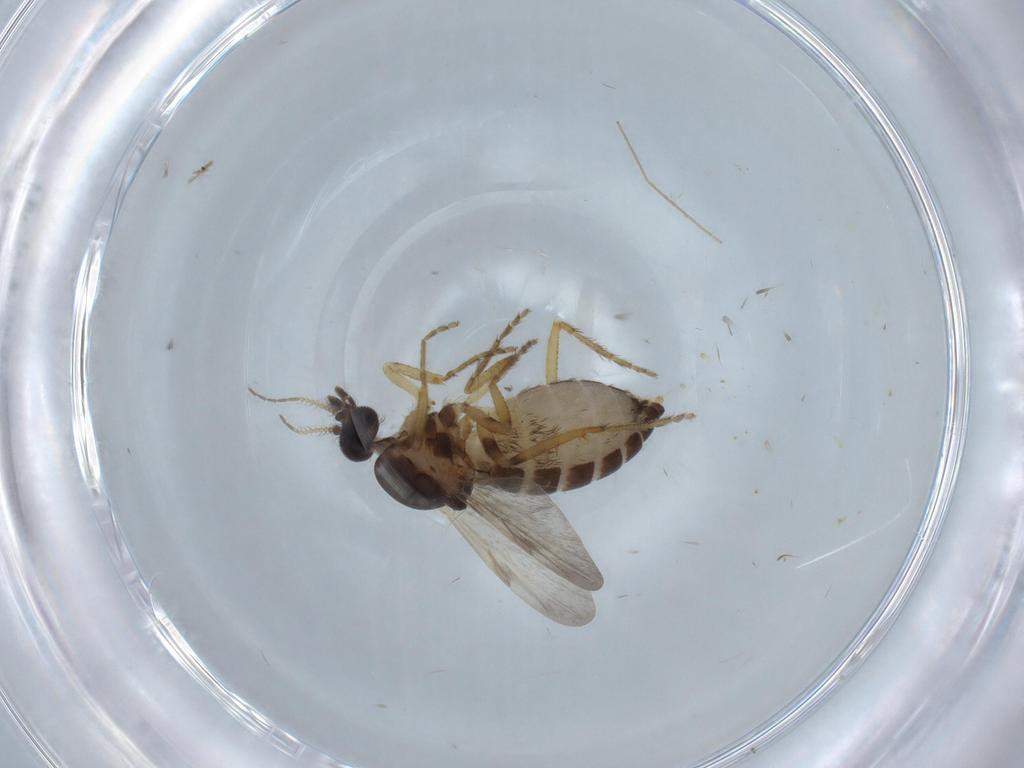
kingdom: Animalia
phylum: Arthropoda
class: Insecta
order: Diptera
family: Ceratopogonidae
